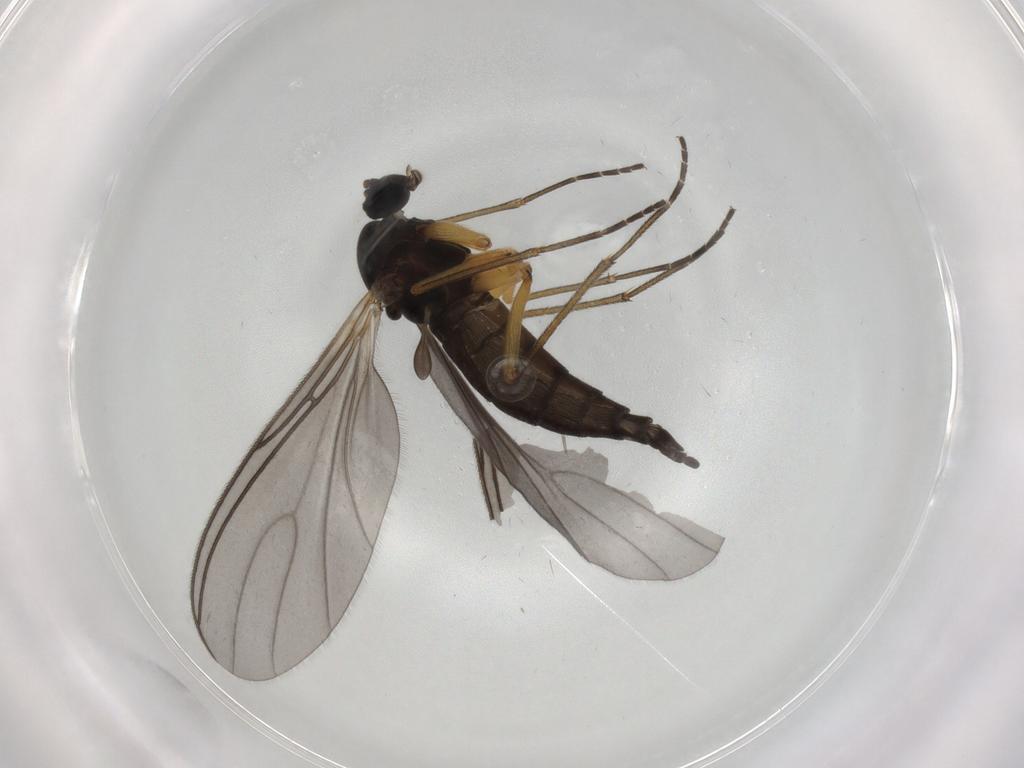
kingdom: Animalia
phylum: Arthropoda
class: Insecta
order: Diptera
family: Sciaridae
